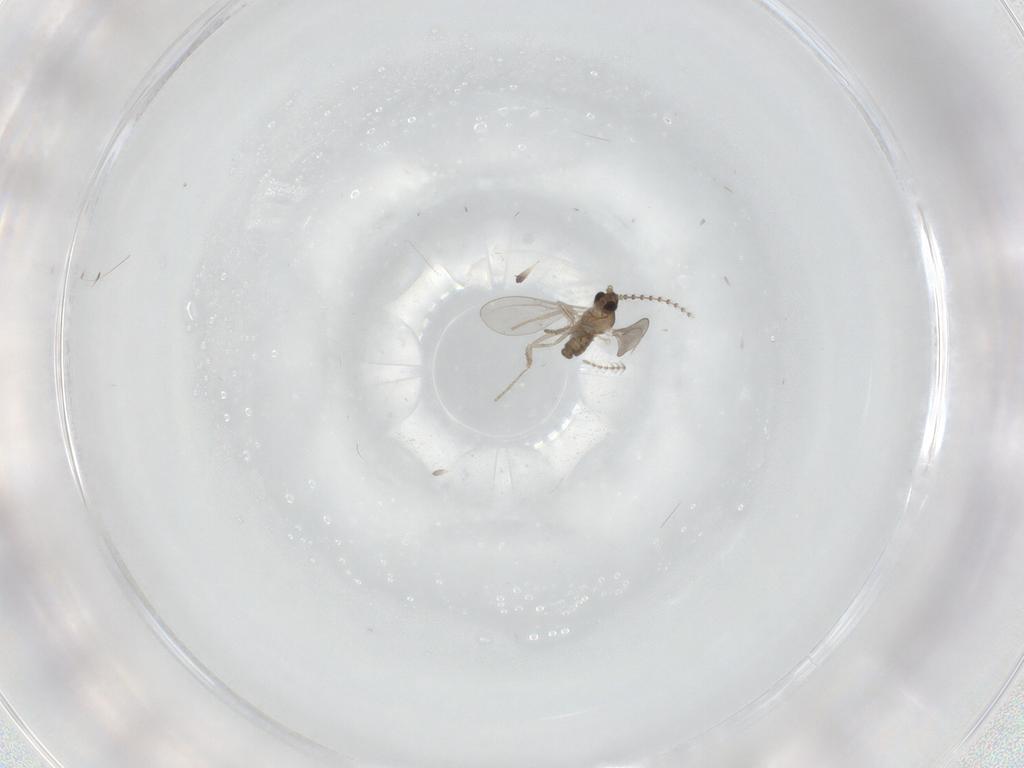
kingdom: Animalia
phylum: Arthropoda
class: Insecta
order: Diptera
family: Cecidomyiidae
